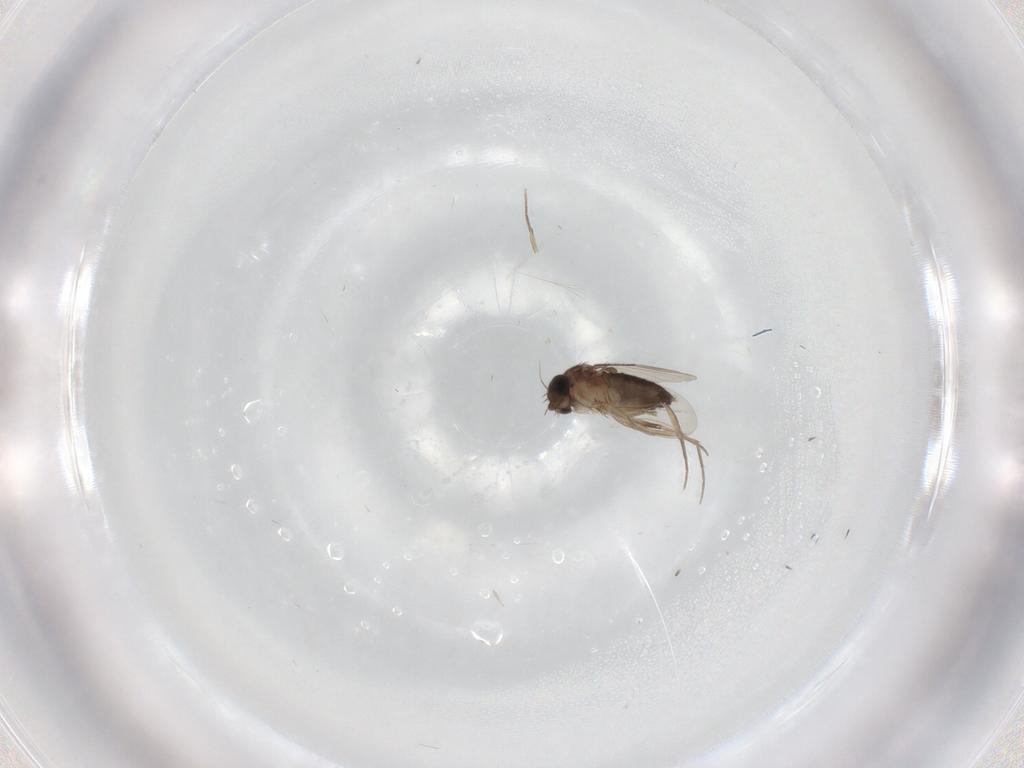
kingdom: Animalia
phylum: Arthropoda
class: Insecta
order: Diptera
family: Phoridae
